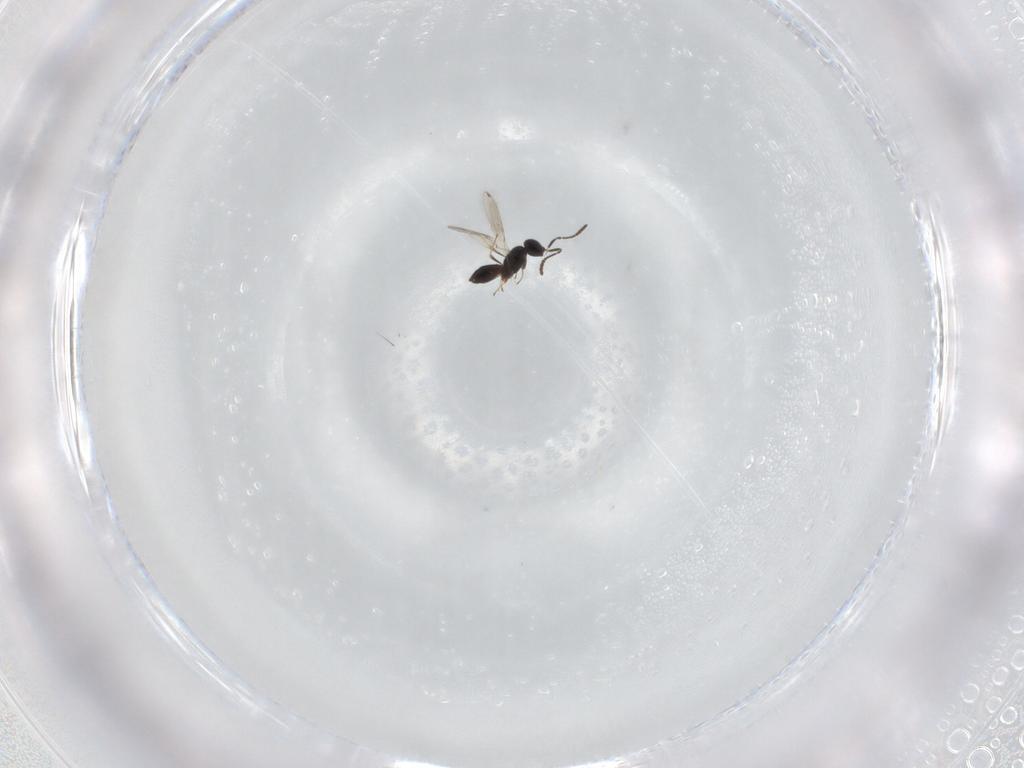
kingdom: Animalia
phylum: Arthropoda
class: Insecta
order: Hymenoptera
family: Scelionidae
